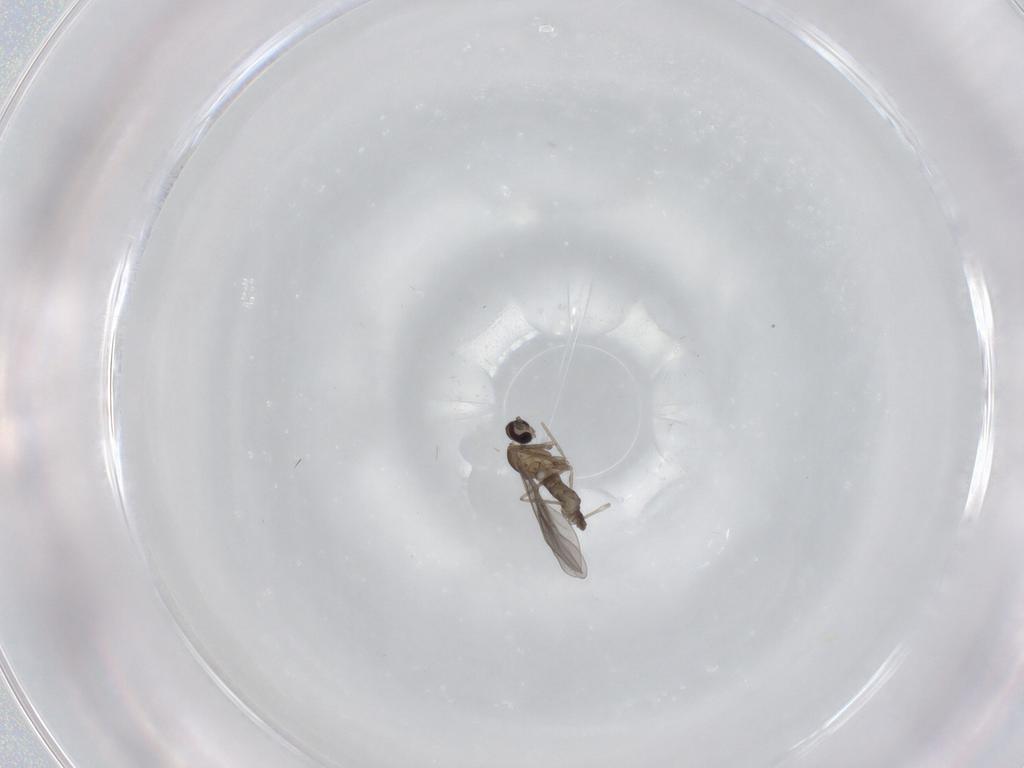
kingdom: Animalia
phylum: Arthropoda
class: Insecta
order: Diptera
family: Cecidomyiidae
